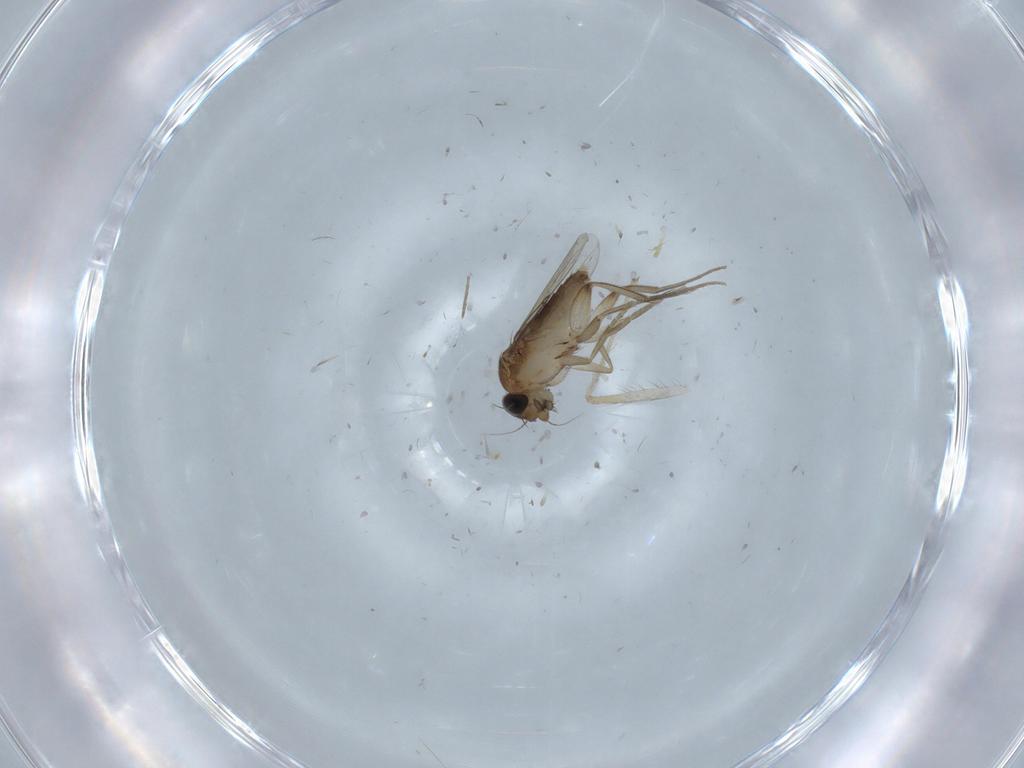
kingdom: Animalia
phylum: Arthropoda
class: Insecta
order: Diptera
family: Chironomidae
